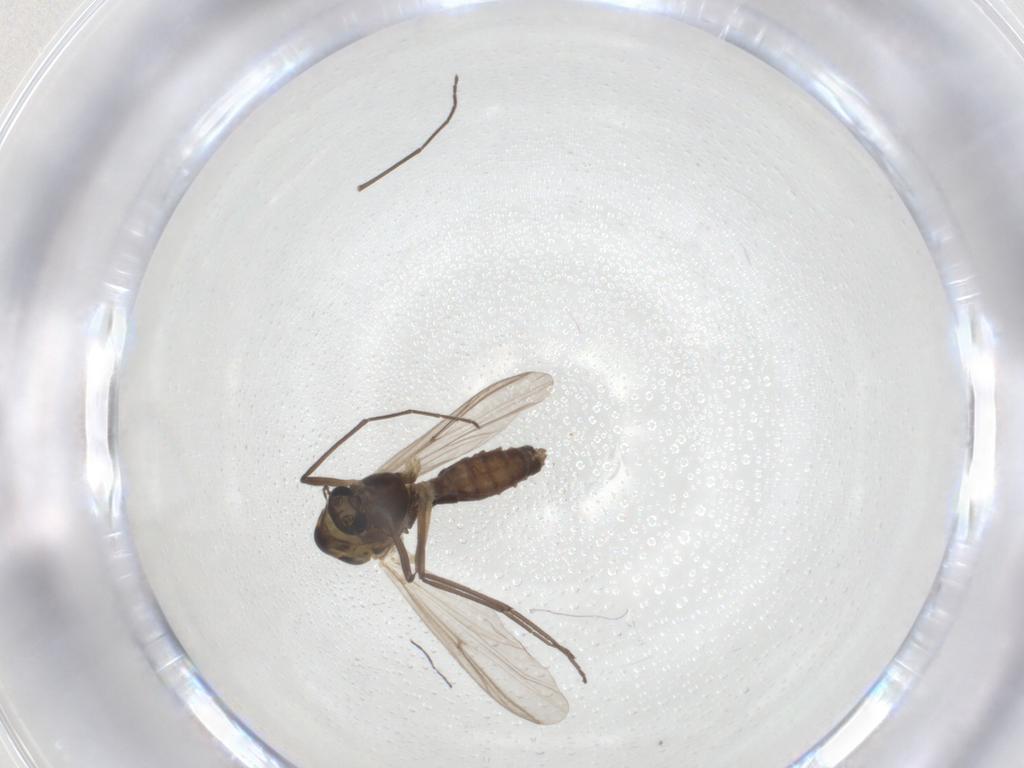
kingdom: Animalia
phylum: Arthropoda
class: Insecta
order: Diptera
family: Chironomidae
